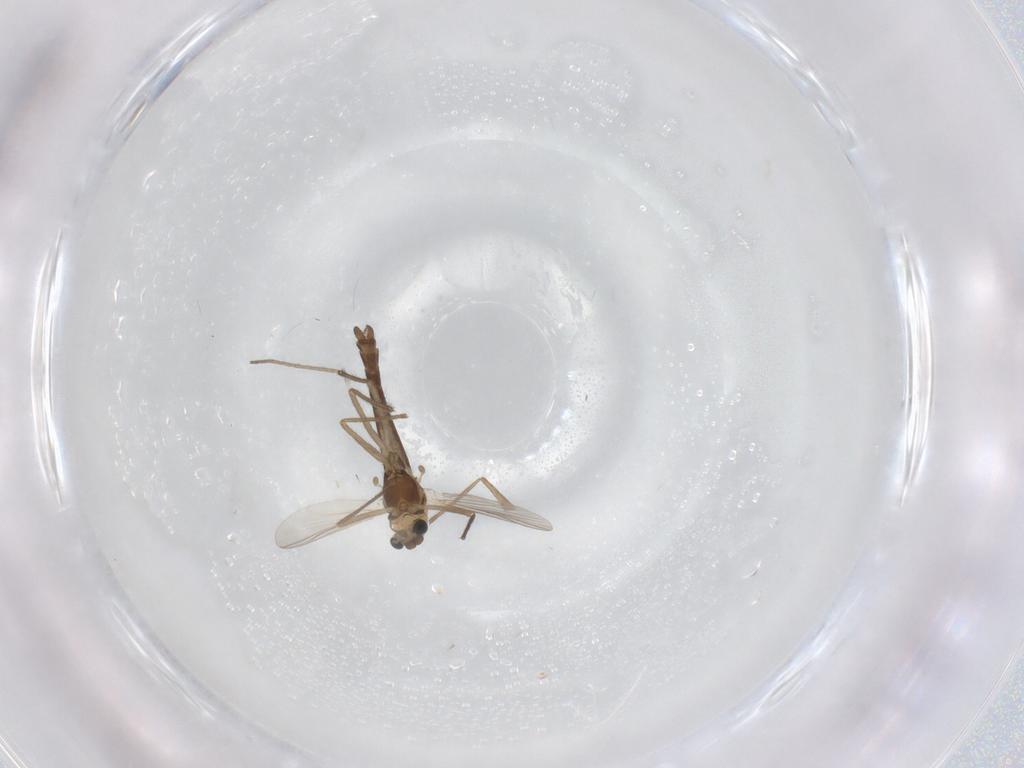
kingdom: Animalia
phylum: Arthropoda
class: Insecta
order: Diptera
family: Chironomidae
